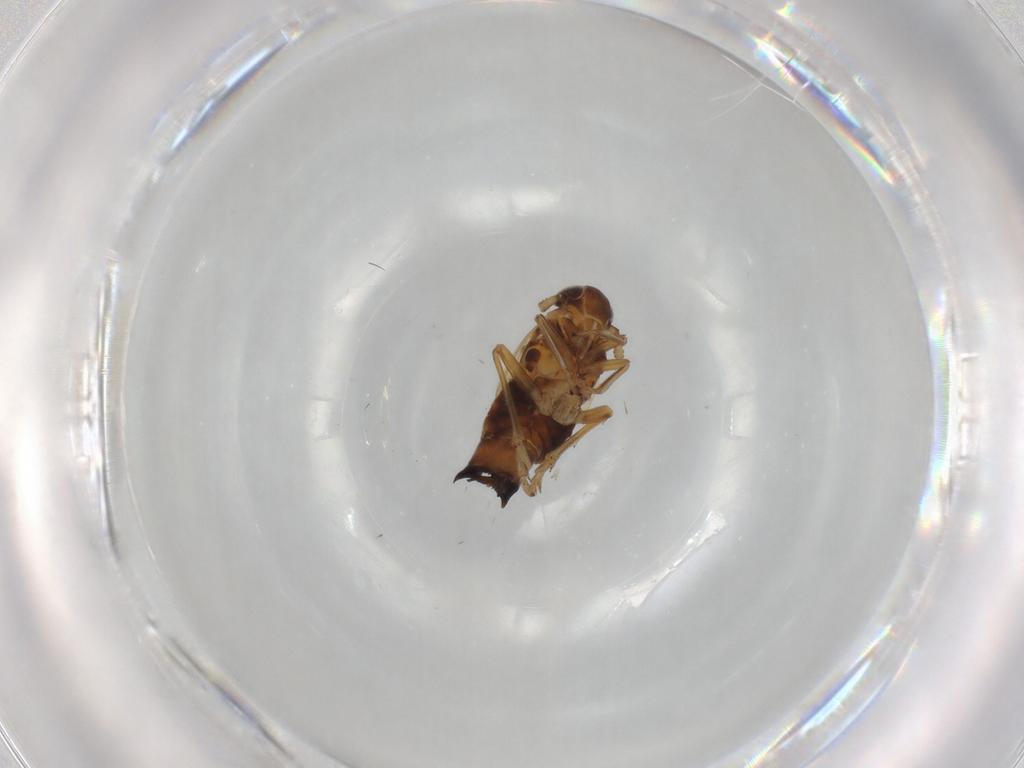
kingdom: Animalia
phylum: Arthropoda
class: Insecta
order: Hemiptera
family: Delphacidae
